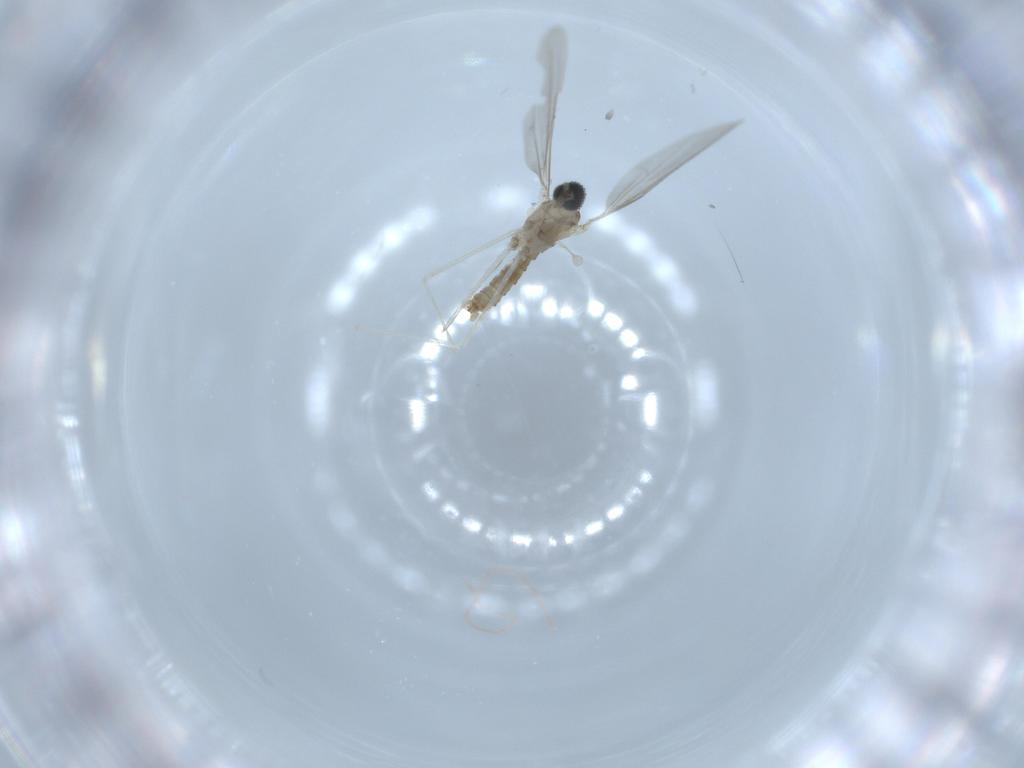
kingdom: Animalia
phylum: Arthropoda
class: Insecta
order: Diptera
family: Cecidomyiidae
